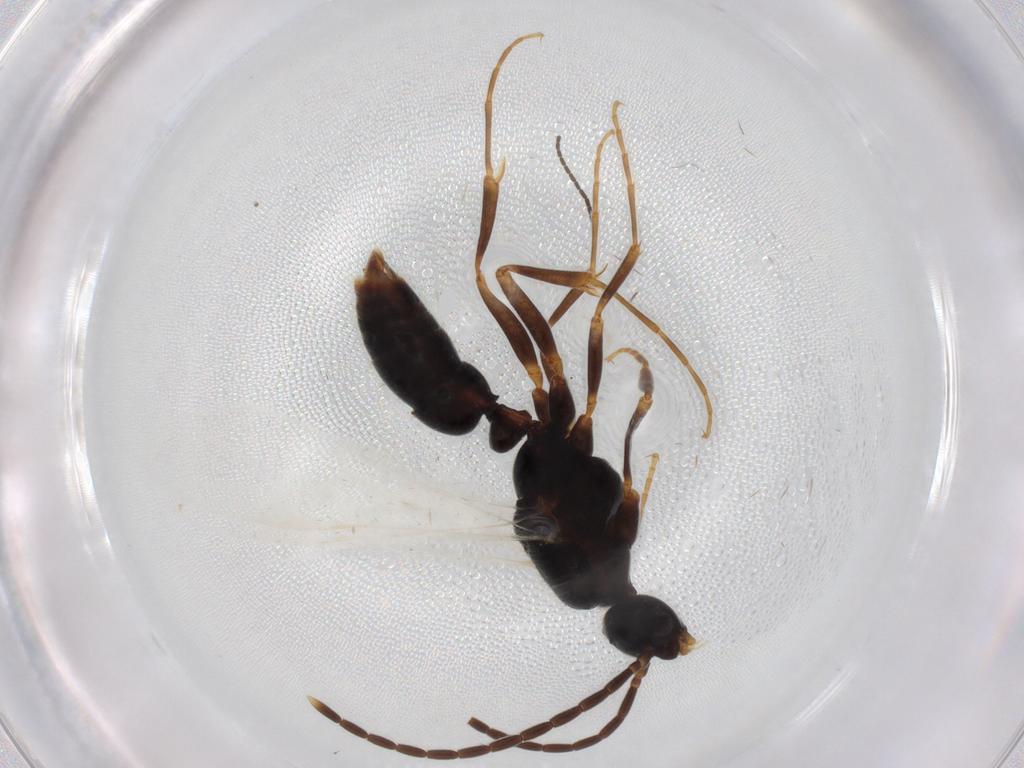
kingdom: Animalia
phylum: Arthropoda
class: Insecta
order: Hymenoptera
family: Formicidae
